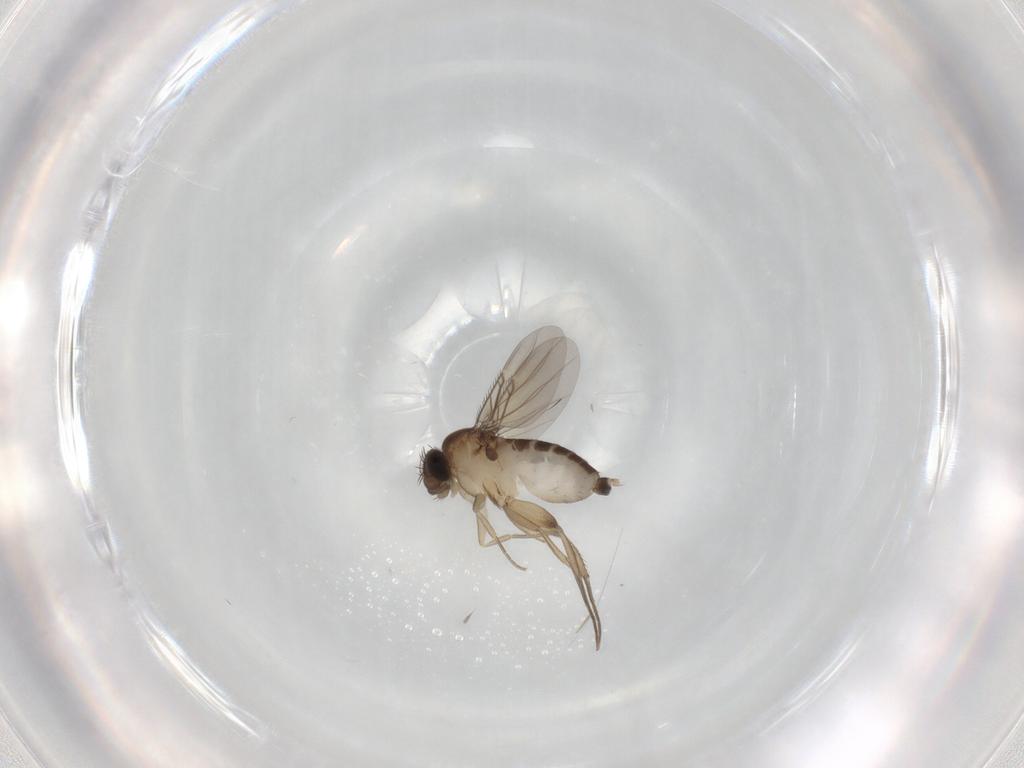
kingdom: Animalia
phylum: Arthropoda
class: Insecta
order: Diptera
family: Phoridae
